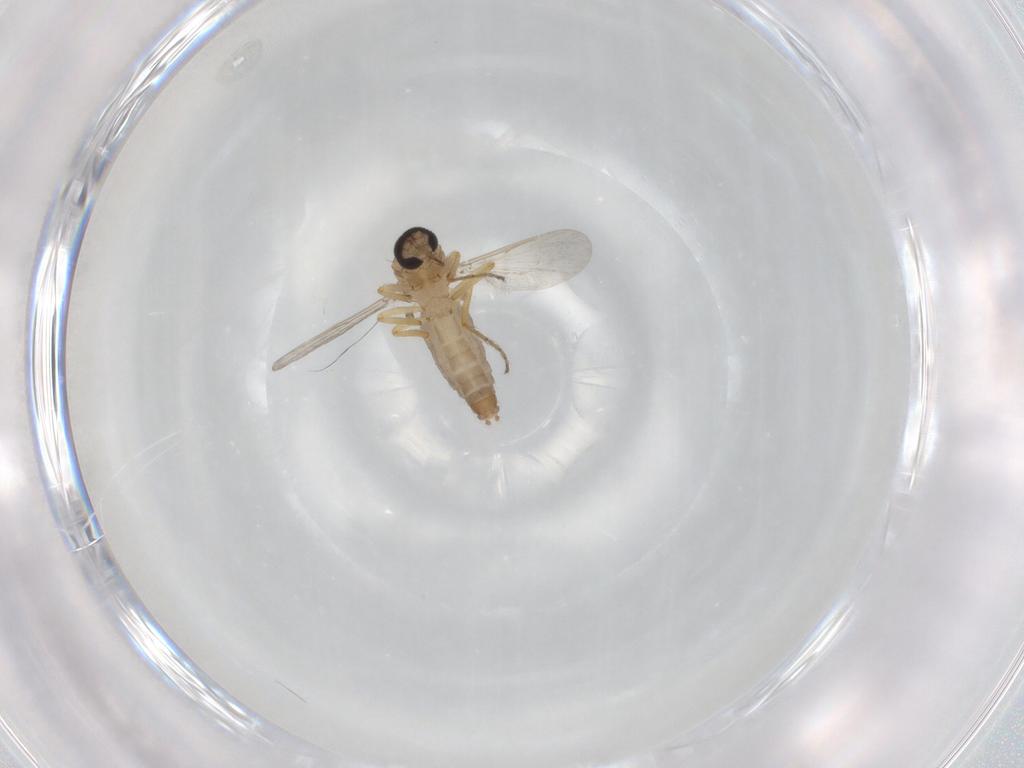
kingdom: Animalia
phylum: Arthropoda
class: Insecta
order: Diptera
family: Ceratopogonidae
